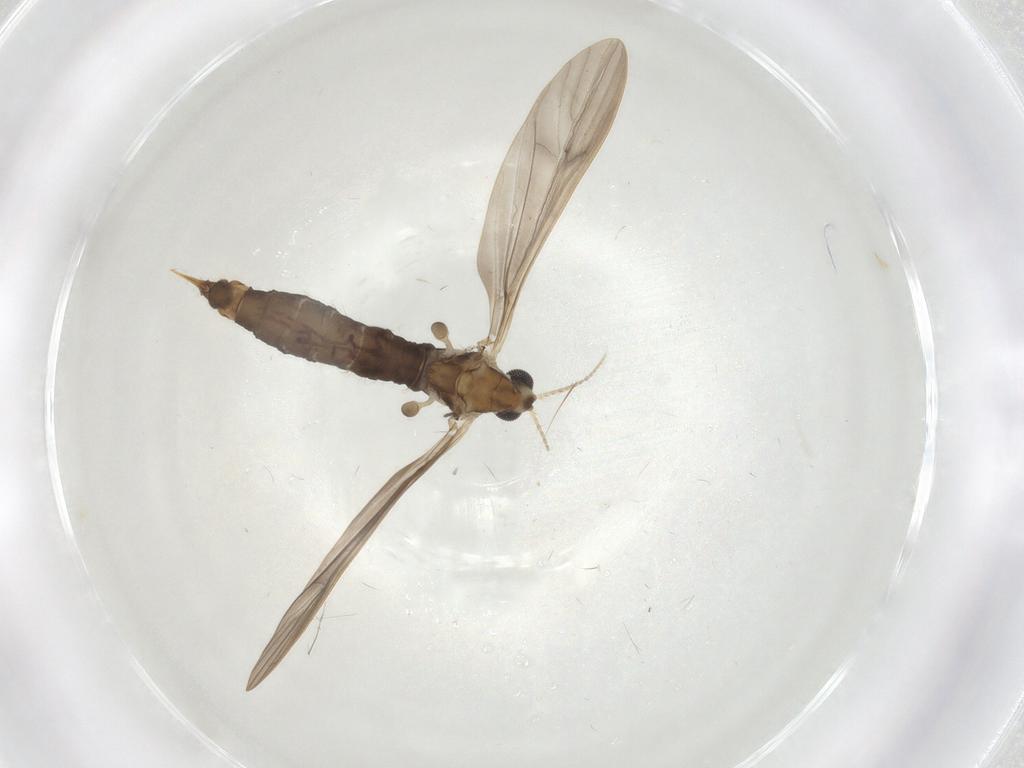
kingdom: Animalia
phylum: Arthropoda
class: Insecta
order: Diptera
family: Limoniidae
